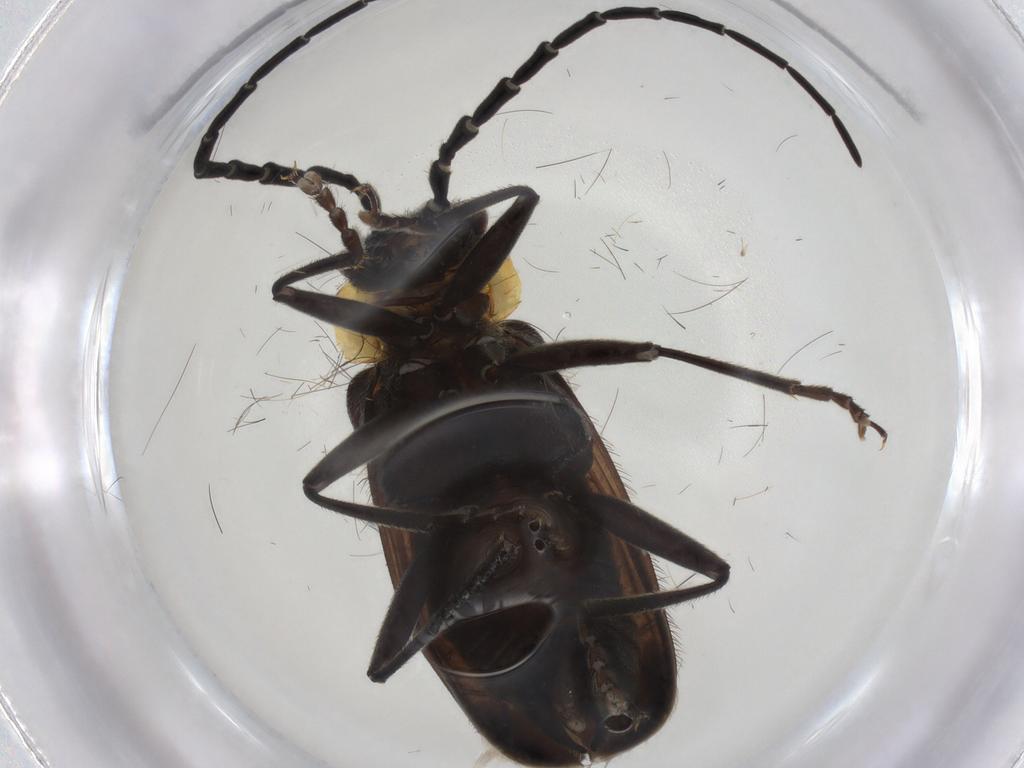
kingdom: Animalia
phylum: Arthropoda
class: Insecta
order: Coleoptera
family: Cantharidae
